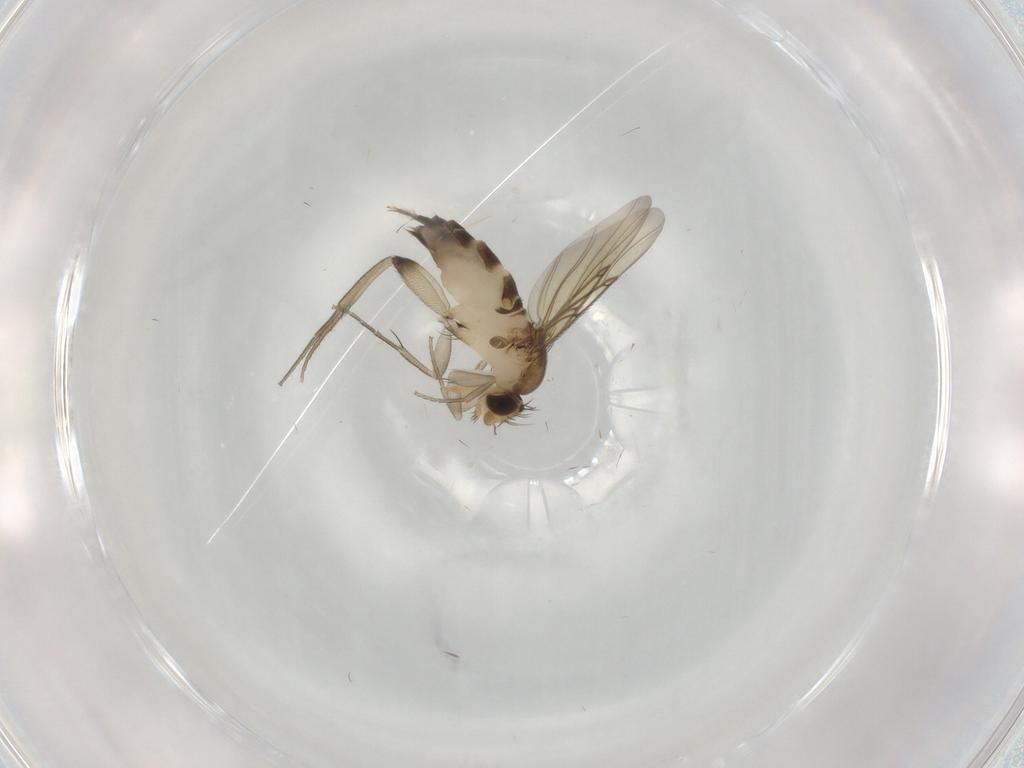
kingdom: Animalia
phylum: Arthropoda
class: Insecta
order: Diptera
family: Phoridae
